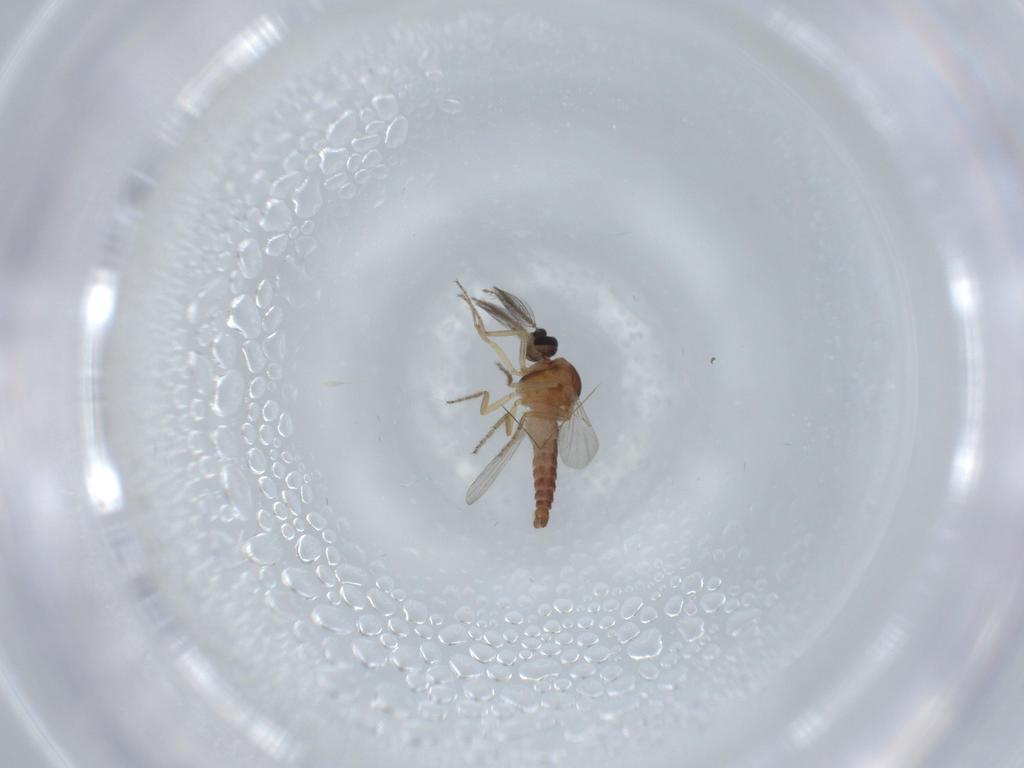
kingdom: Animalia
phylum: Arthropoda
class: Insecta
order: Diptera
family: Ceratopogonidae
